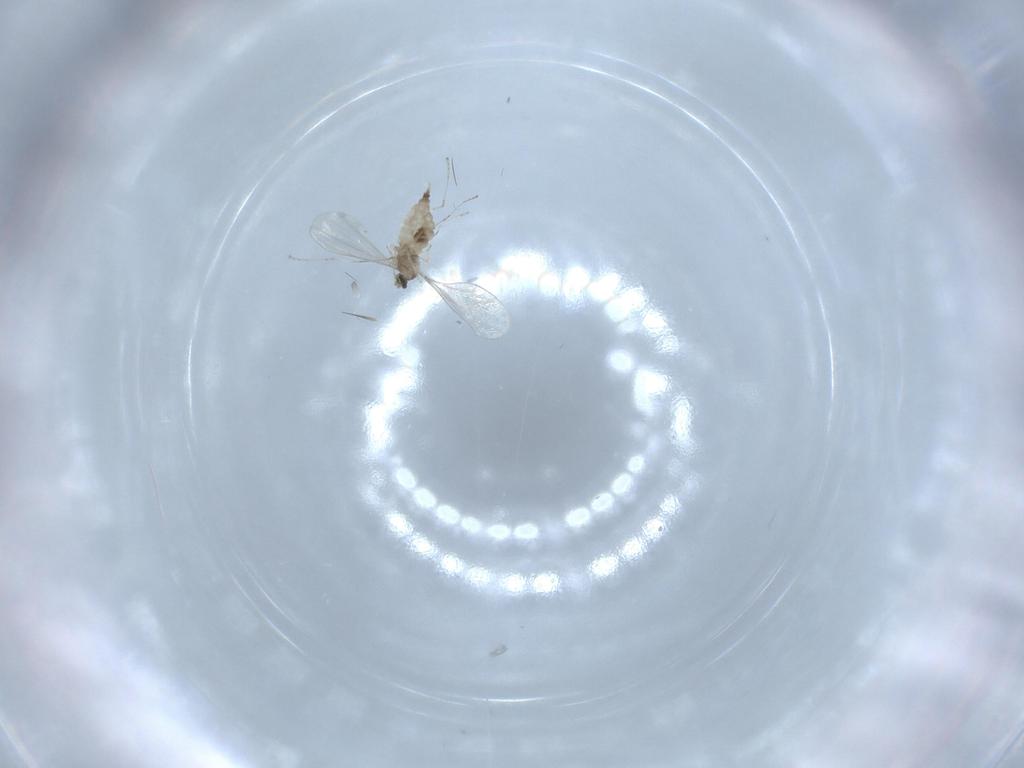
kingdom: Animalia
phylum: Arthropoda
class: Insecta
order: Diptera
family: Cecidomyiidae
